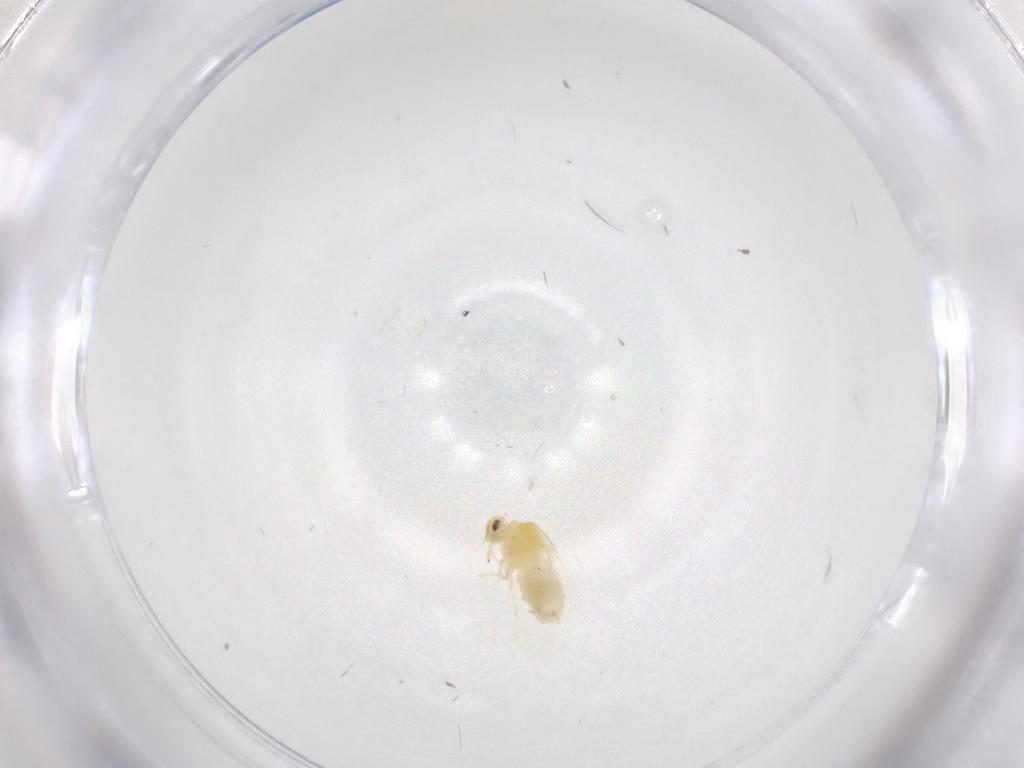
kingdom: Animalia
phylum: Arthropoda
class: Insecta
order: Hemiptera
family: Aleyrodidae
